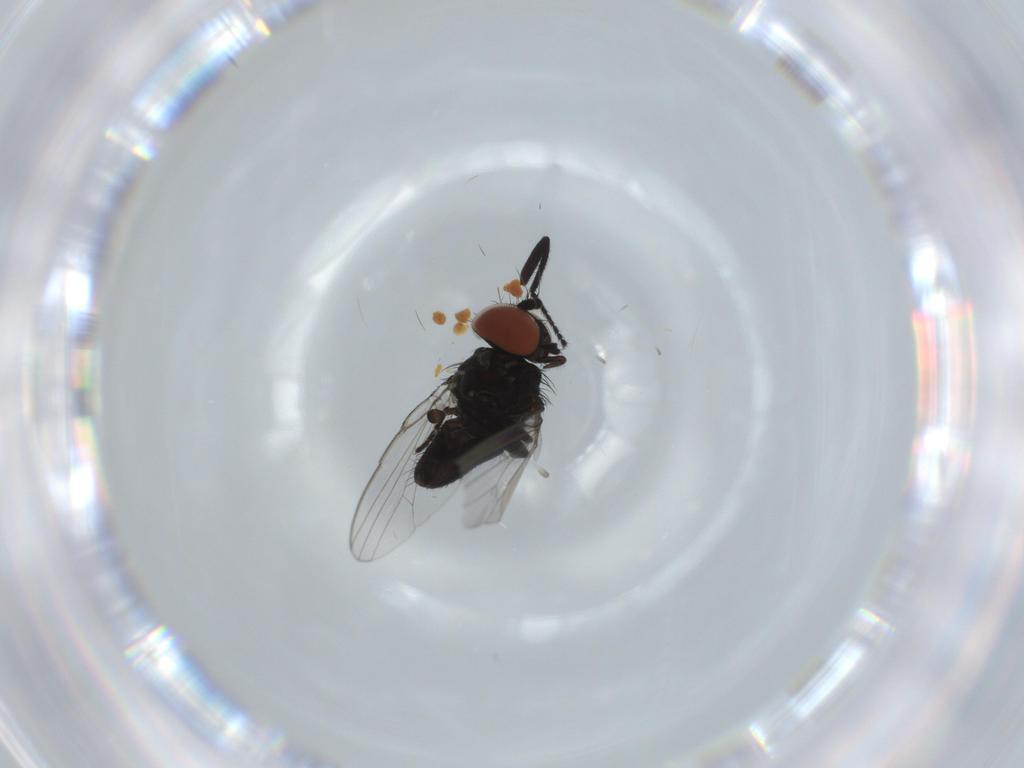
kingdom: Animalia
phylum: Arthropoda
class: Insecta
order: Diptera
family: Milichiidae
